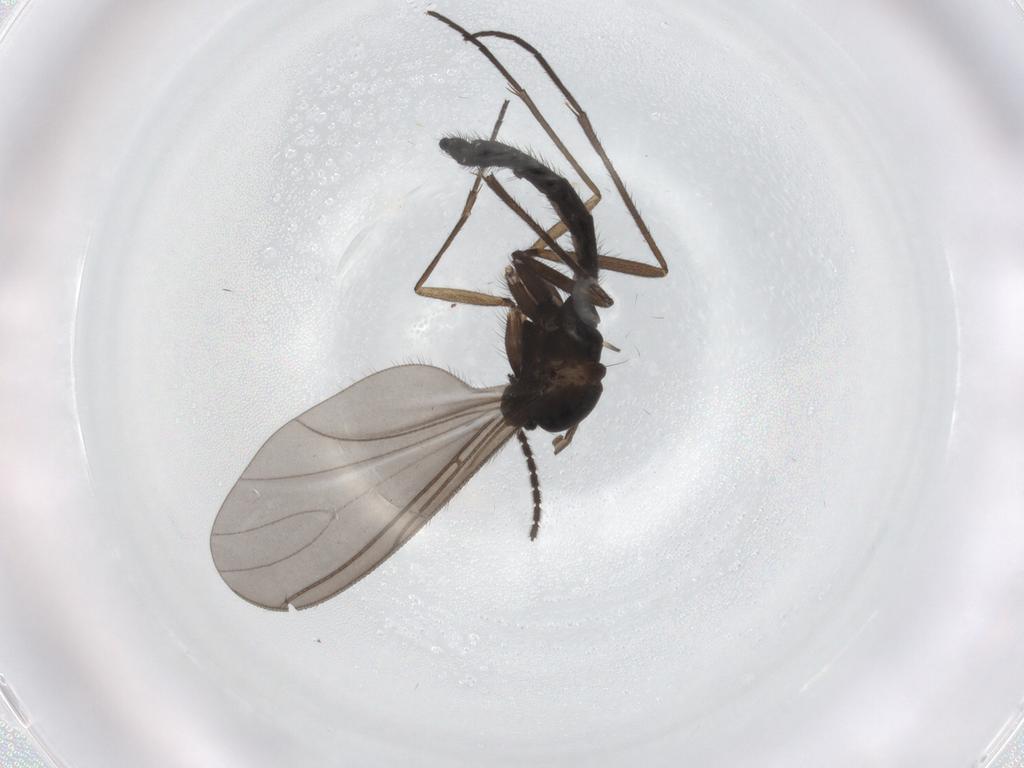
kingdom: Animalia
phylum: Arthropoda
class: Insecta
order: Diptera
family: Sciaridae
